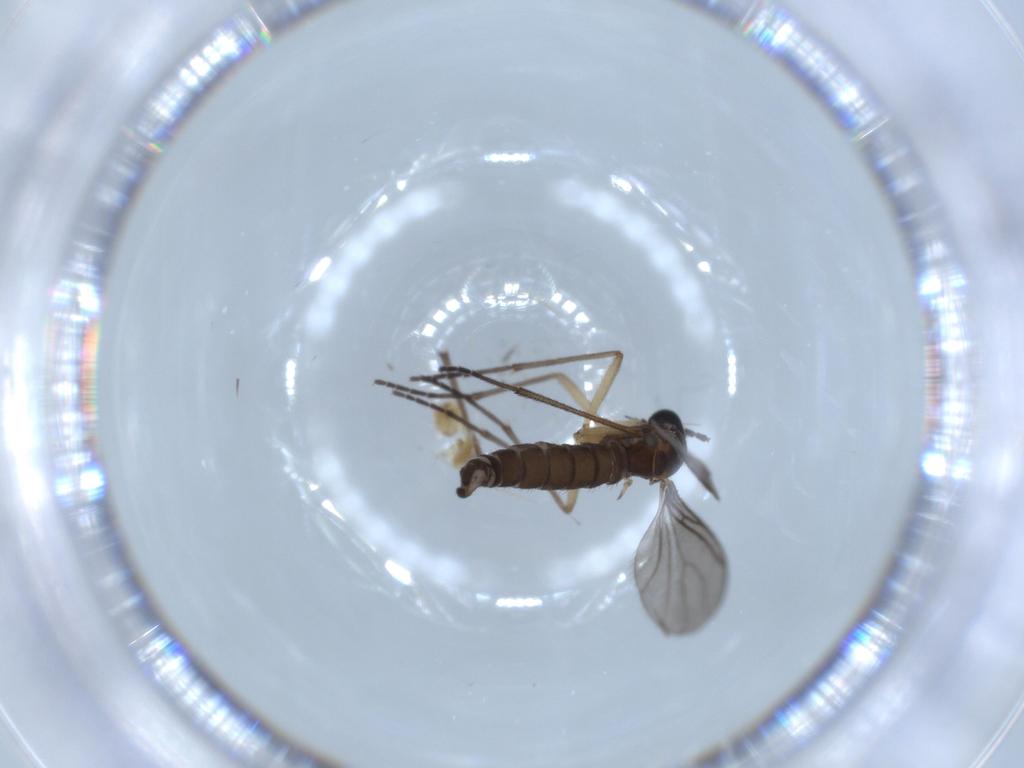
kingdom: Animalia
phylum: Arthropoda
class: Insecta
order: Diptera
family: Sciaridae
